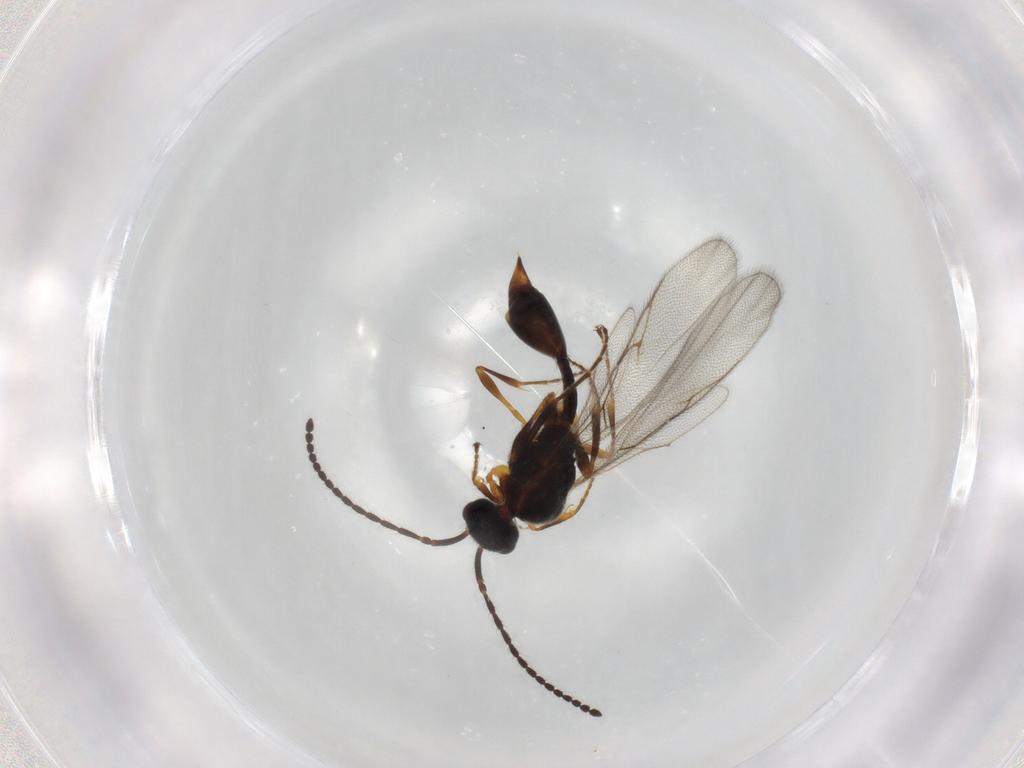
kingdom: Animalia
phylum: Arthropoda
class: Insecta
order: Hymenoptera
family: Diapriidae
